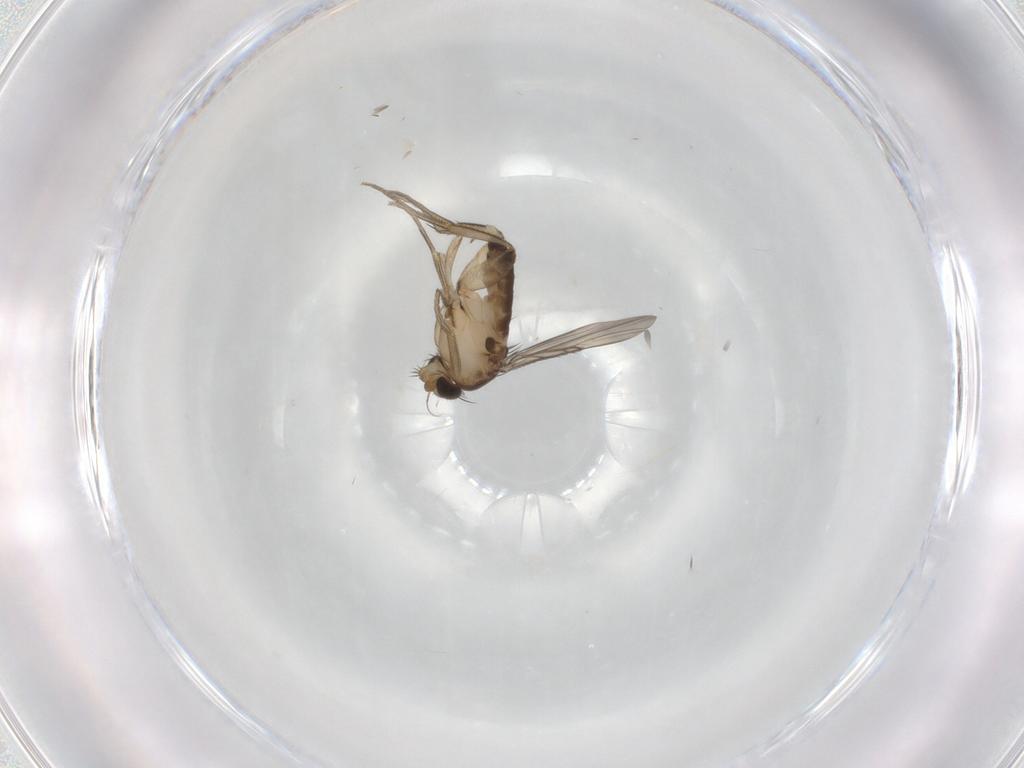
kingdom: Animalia
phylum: Arthropoda
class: Insecta
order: Diptera
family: Phoridae
